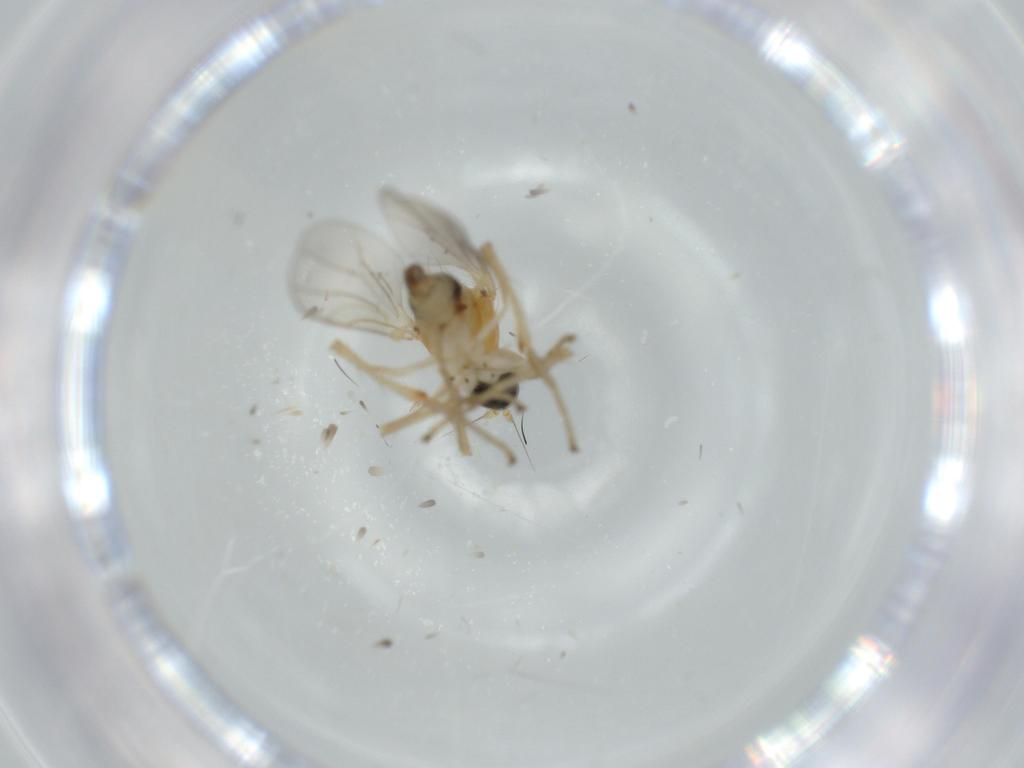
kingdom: Animalia
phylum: Arthropoda
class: Insecta
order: Diptera
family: Hybotidae
